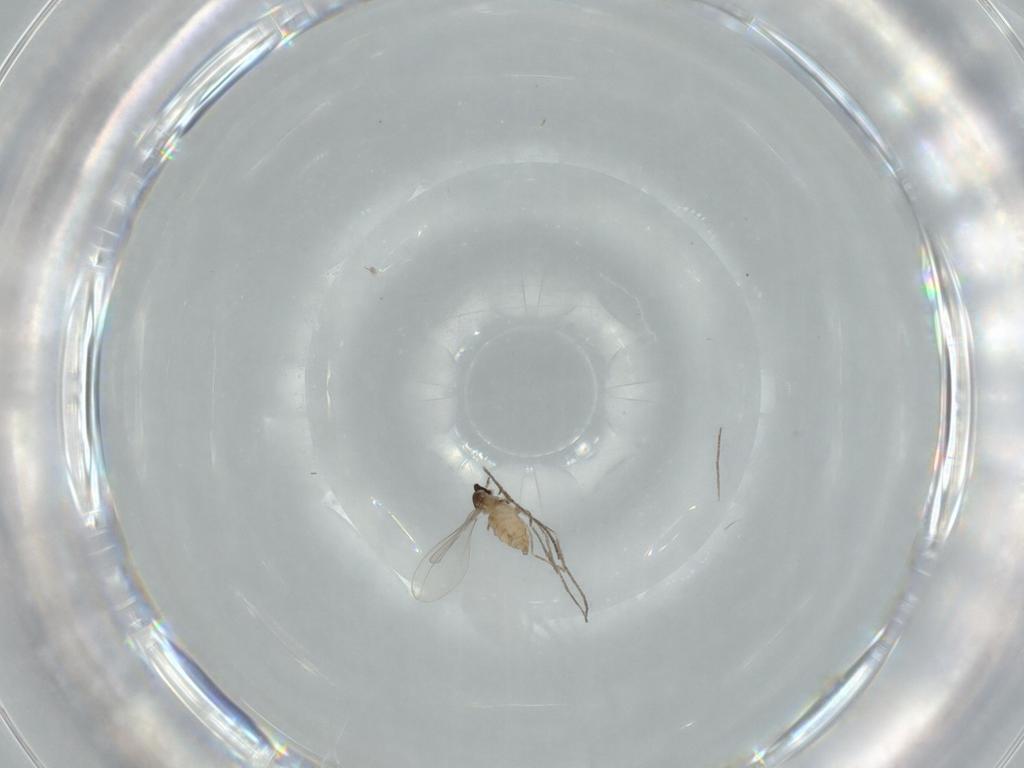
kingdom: Animalia
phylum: Arthropoda
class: Insecta
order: Diptera
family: Cecidomyiidae
